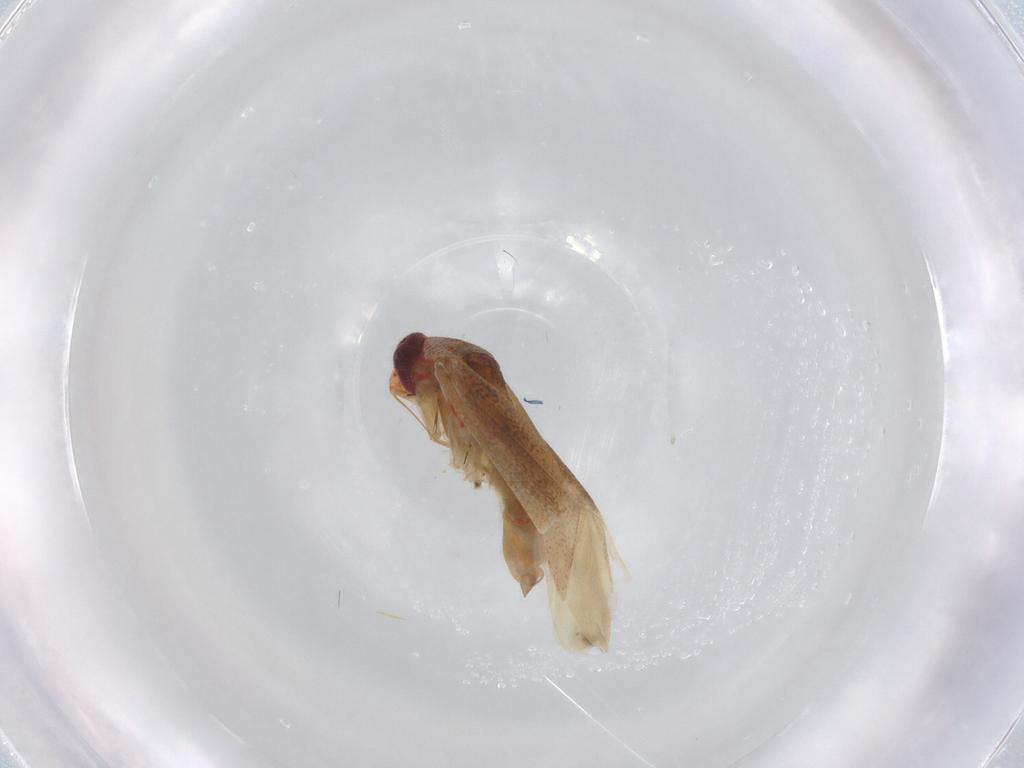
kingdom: Animalia
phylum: Arthropoda
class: Insecta
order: Hemiptera
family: Miridae
